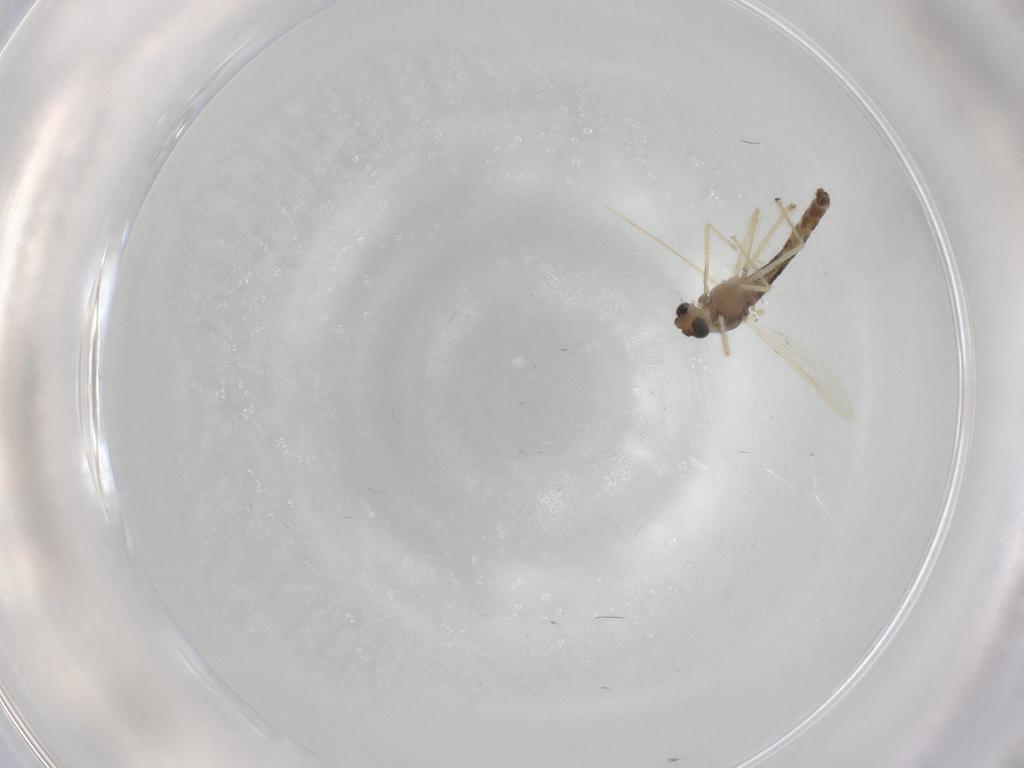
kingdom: Animalia
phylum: Arthropoda
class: Insecta
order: Diptera
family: Chironomidae
